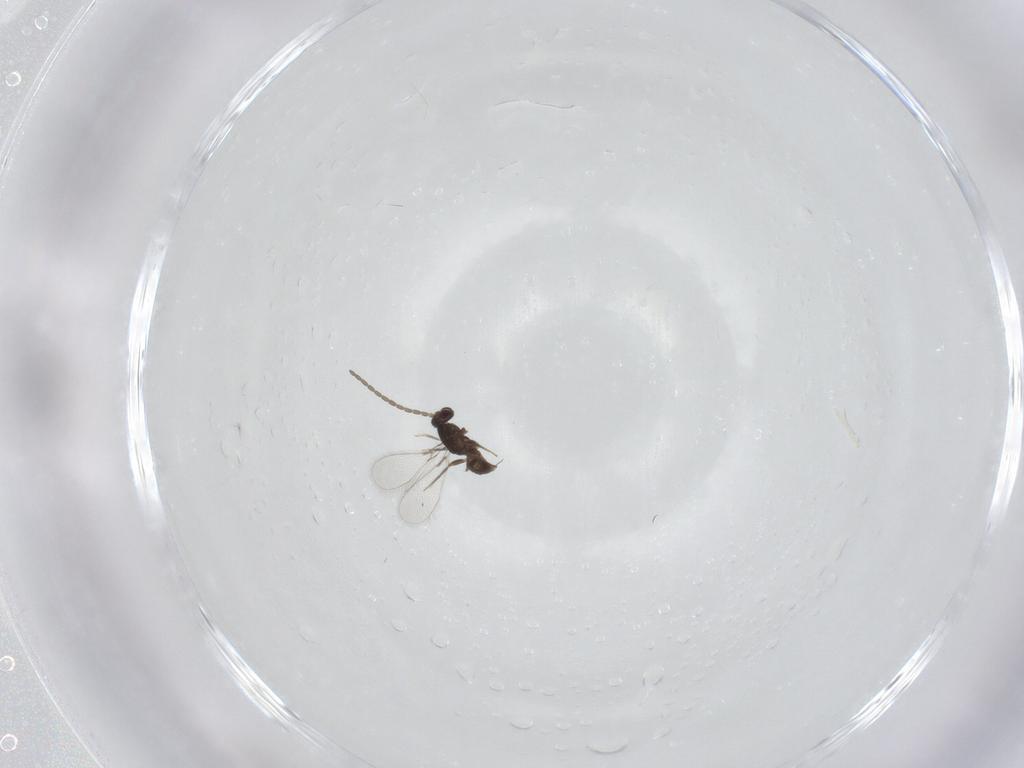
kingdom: Animalia
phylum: Arthropoda
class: Insecta
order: Hymenoptera
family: Mymaridae
